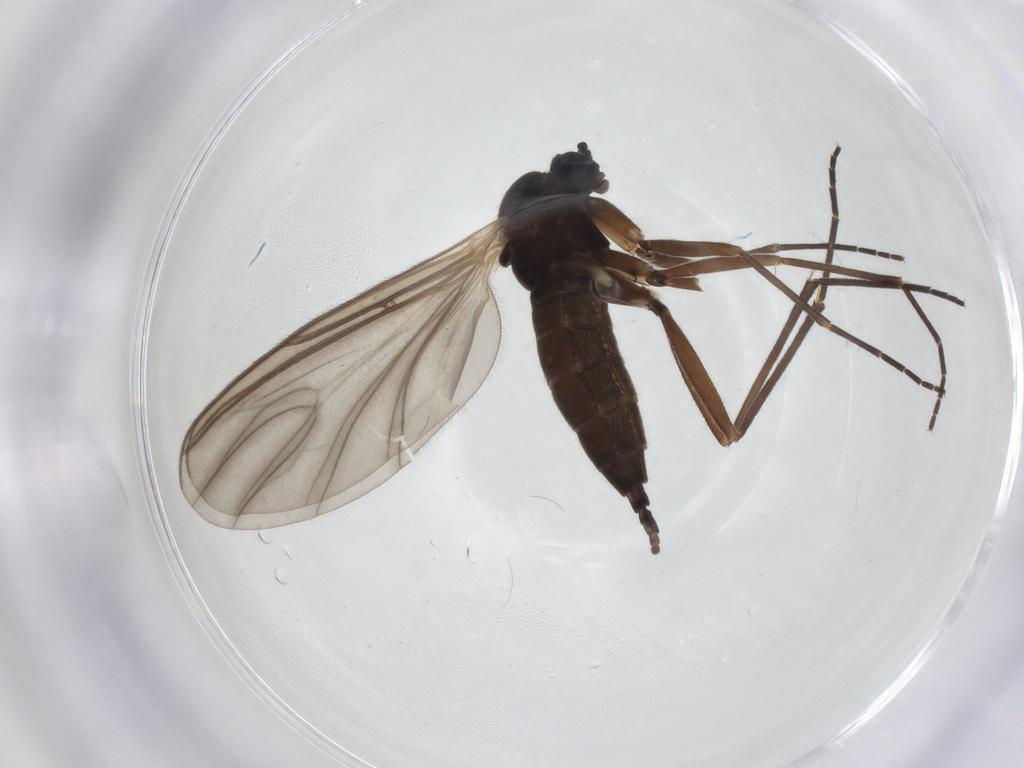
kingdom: Animalia
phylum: Arthropoda
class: Insecta
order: Diptera
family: Sciaridae
